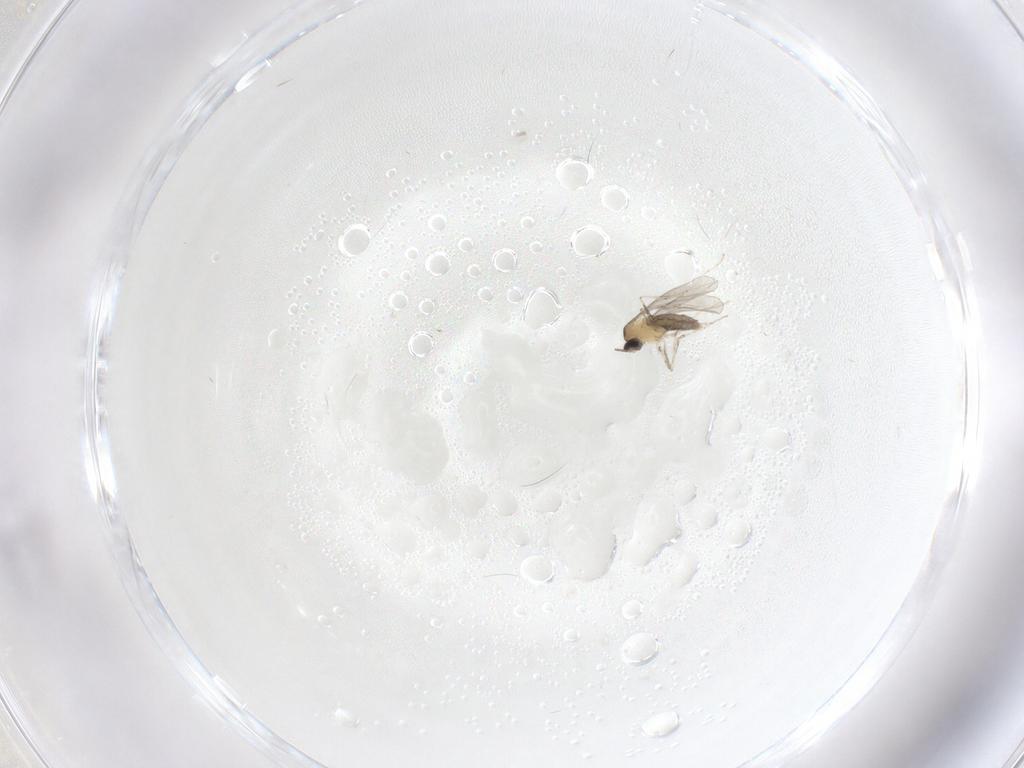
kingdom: Animalia
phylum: Arthropoda
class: Insecta
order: Diptera
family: Cecidomyiidae
